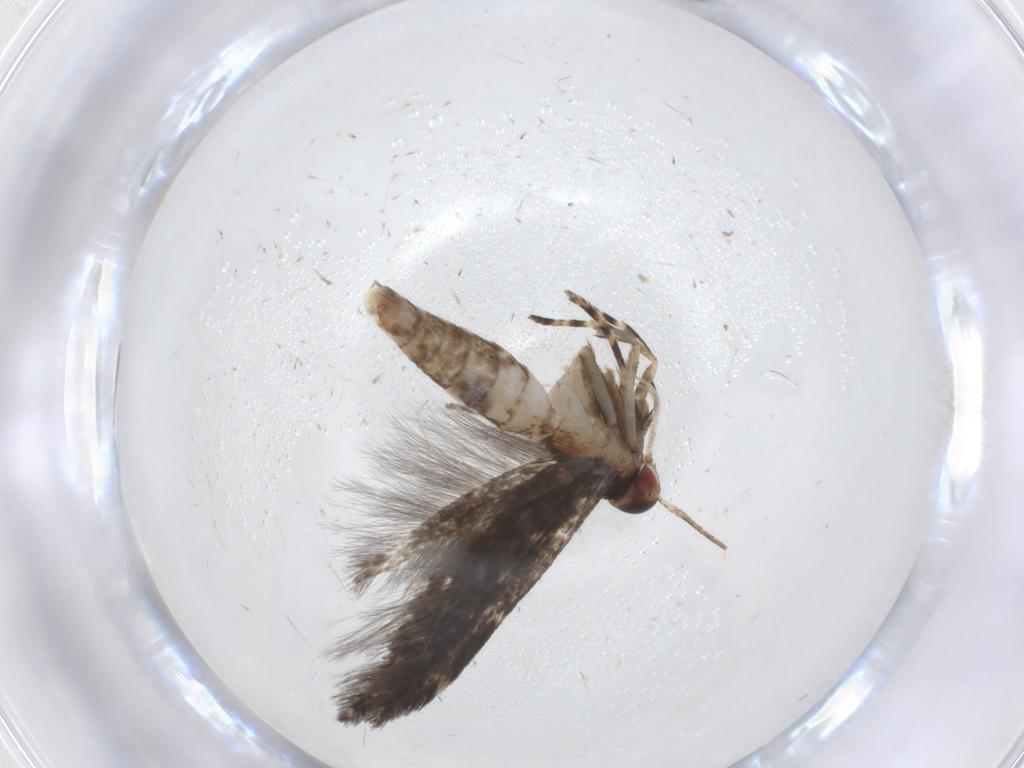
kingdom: Animalia
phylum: Arthropoda
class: Insecta
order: Lepidoptera
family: Cosmopterigidae
